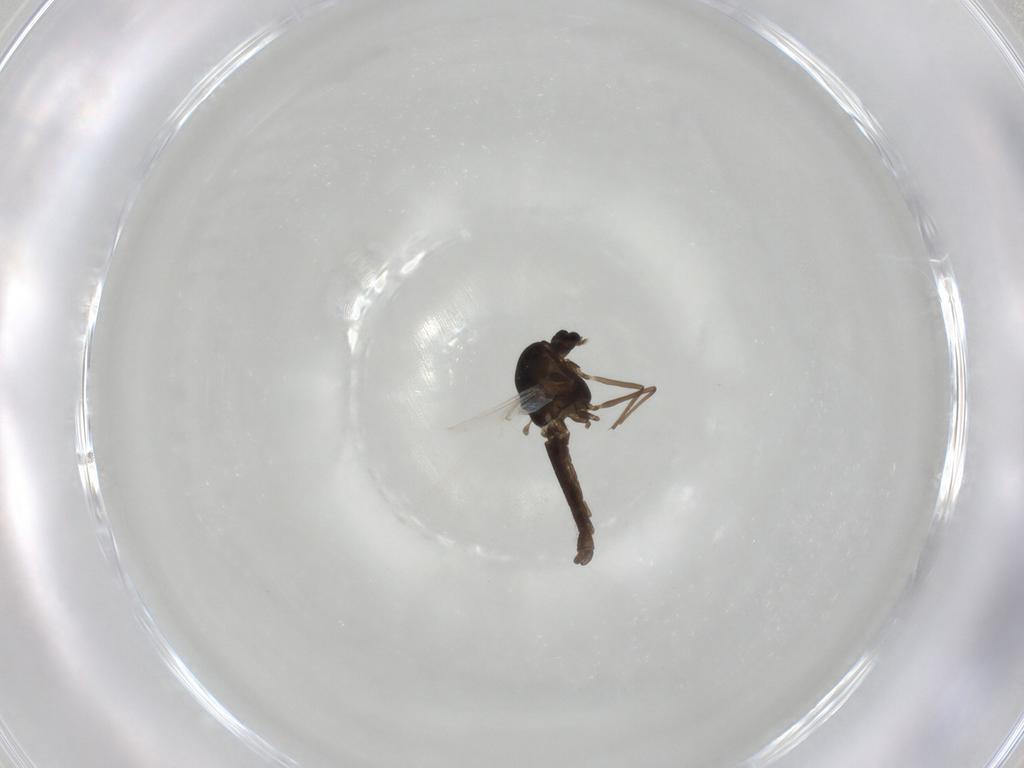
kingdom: Animalia
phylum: Arthropoda
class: Insecta
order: Diptera
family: Chironomidae
